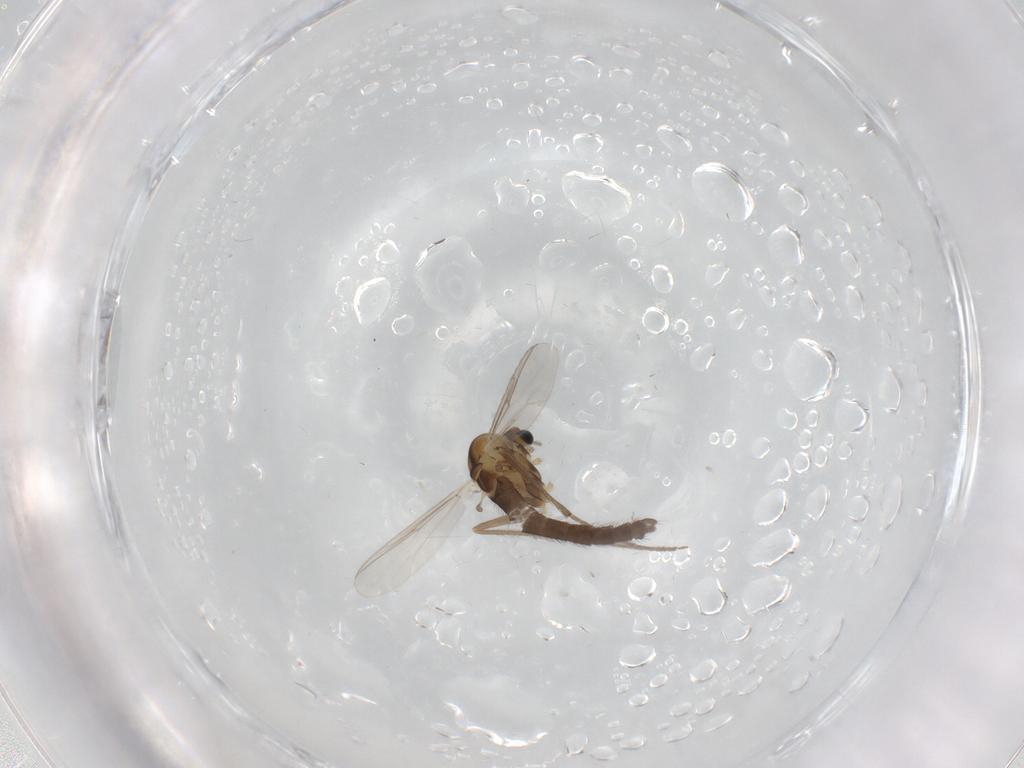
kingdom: Animalia
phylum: Arthropoda
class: Insecta
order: Diptera
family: Chironomidae
